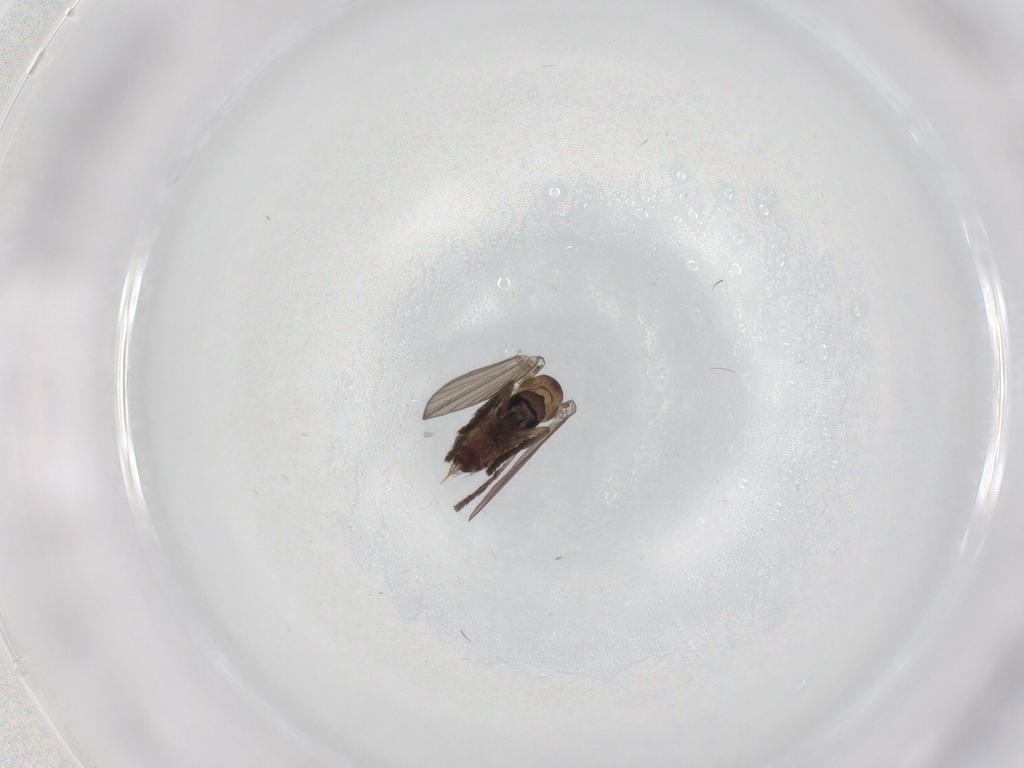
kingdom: Animalia
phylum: Arthropoda
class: Insecta
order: Diptera
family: Psychodidae
